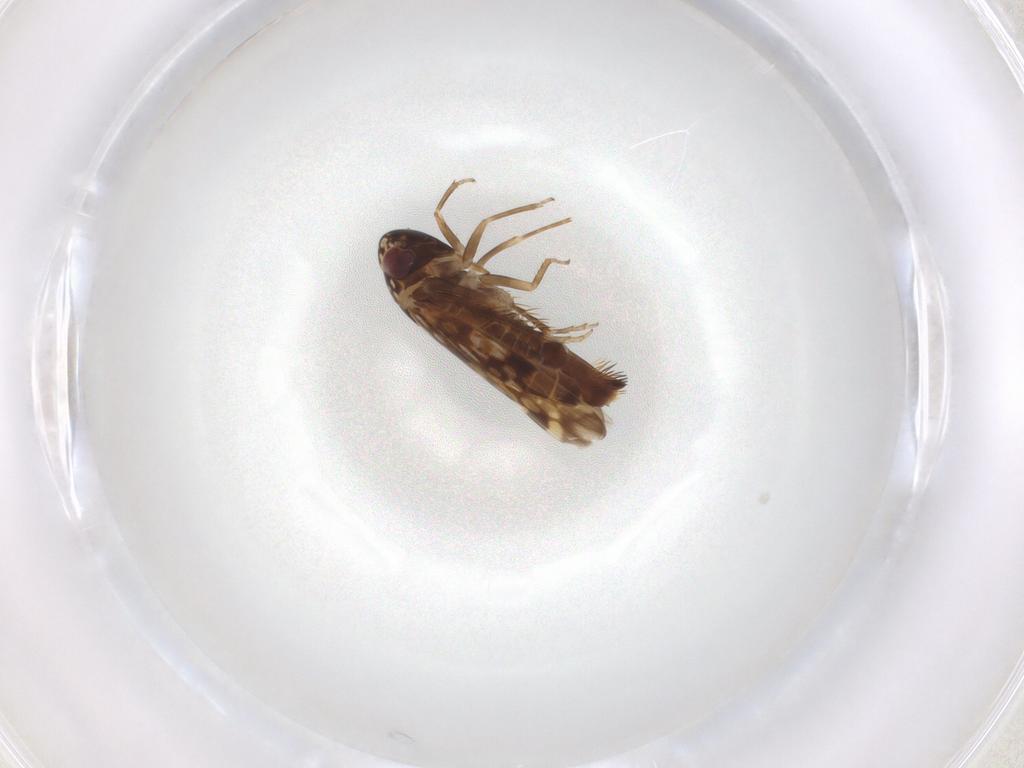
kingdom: Animalia
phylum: Arthropoda
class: Insecta
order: Hemiptera
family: Cicadellidae
